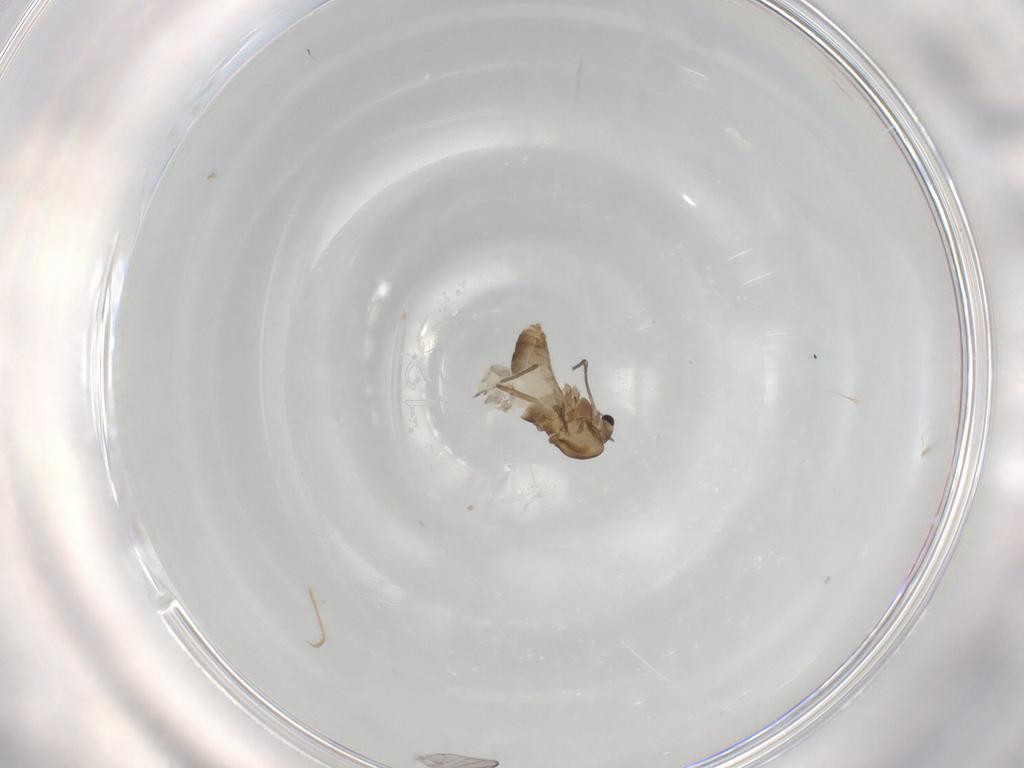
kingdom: Animalia
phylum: Arthropoda
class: Insecta
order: Diptera
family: Chironomidae
